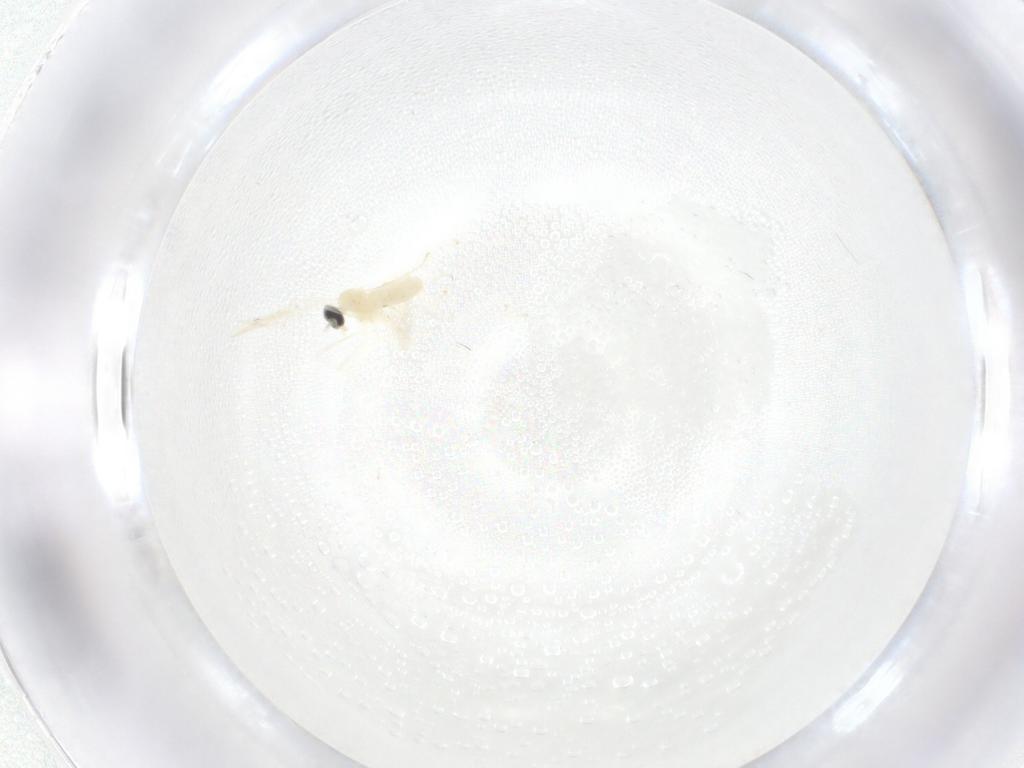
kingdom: Animalia
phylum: Arthropoda
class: Insecta
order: Diptera
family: Cecidomyiidae
